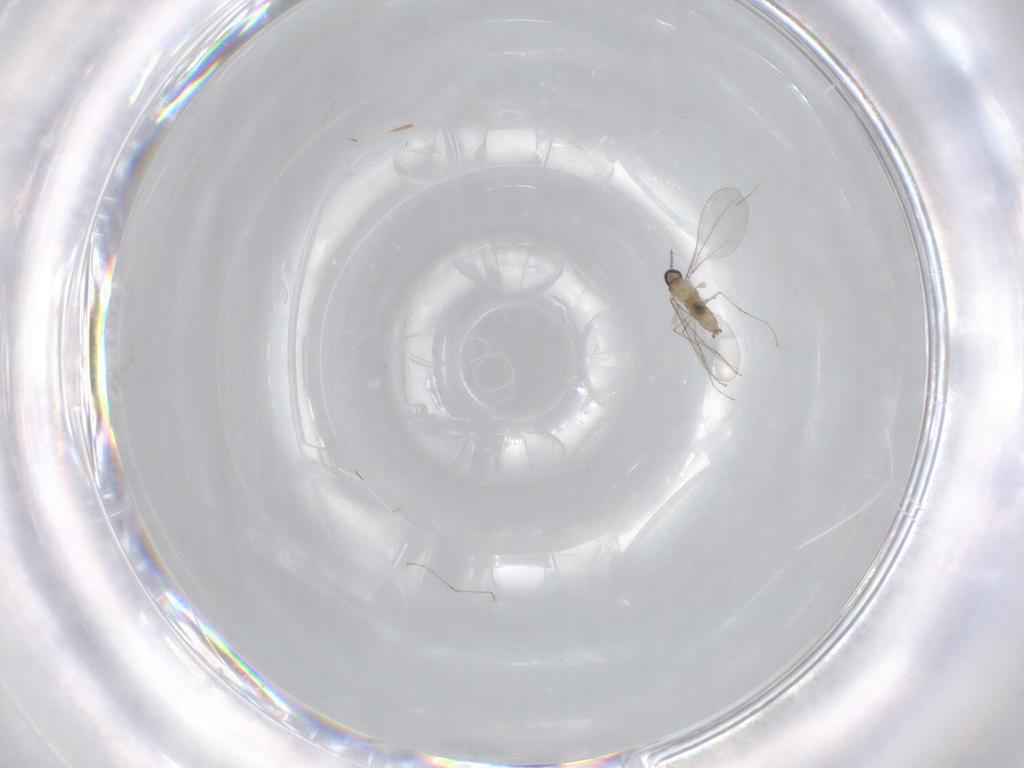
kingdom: Animalia
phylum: Arthropoda
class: Insecta
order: Diptera
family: Cecidomyiidae
